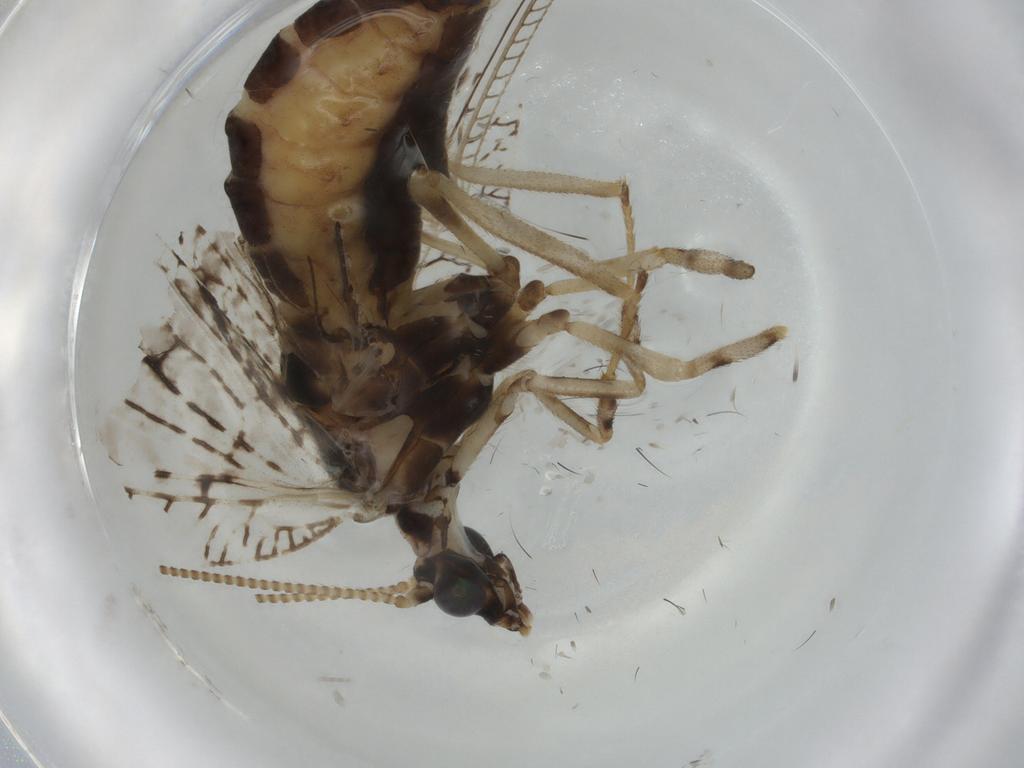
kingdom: Animalia
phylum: Arthropoda
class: Insecta
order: Neuroptera
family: Hemerobiidae
